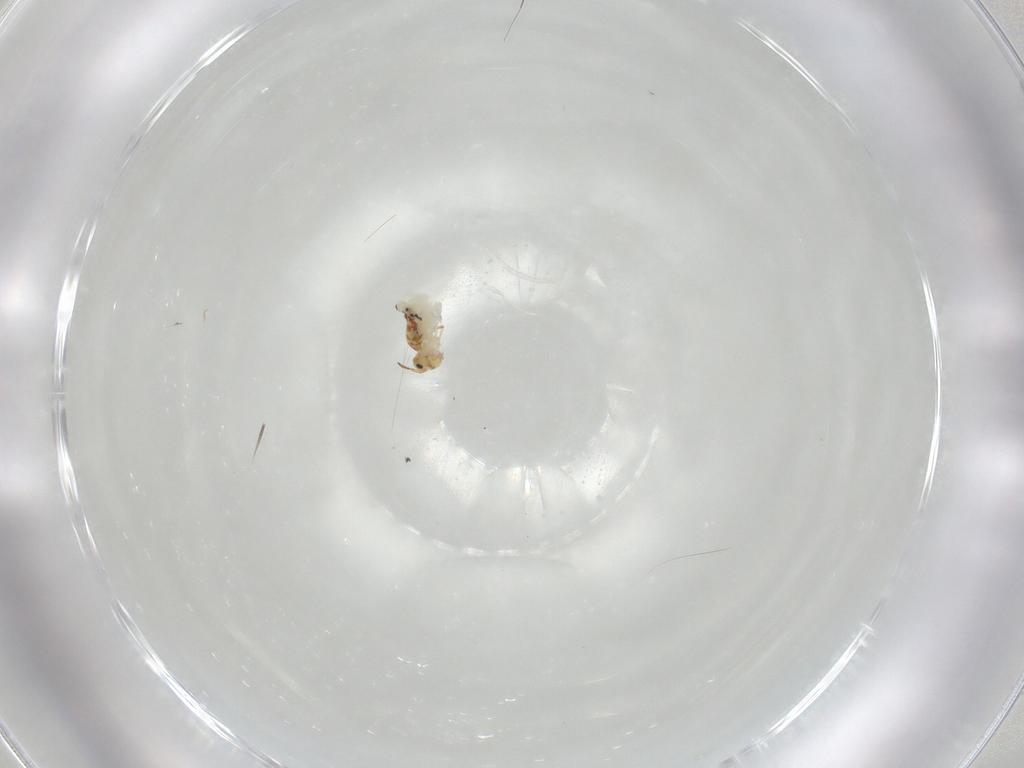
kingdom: Animalia
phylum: Arthropoda
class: Collembola
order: Symphypleona
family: Bourletiellidae
